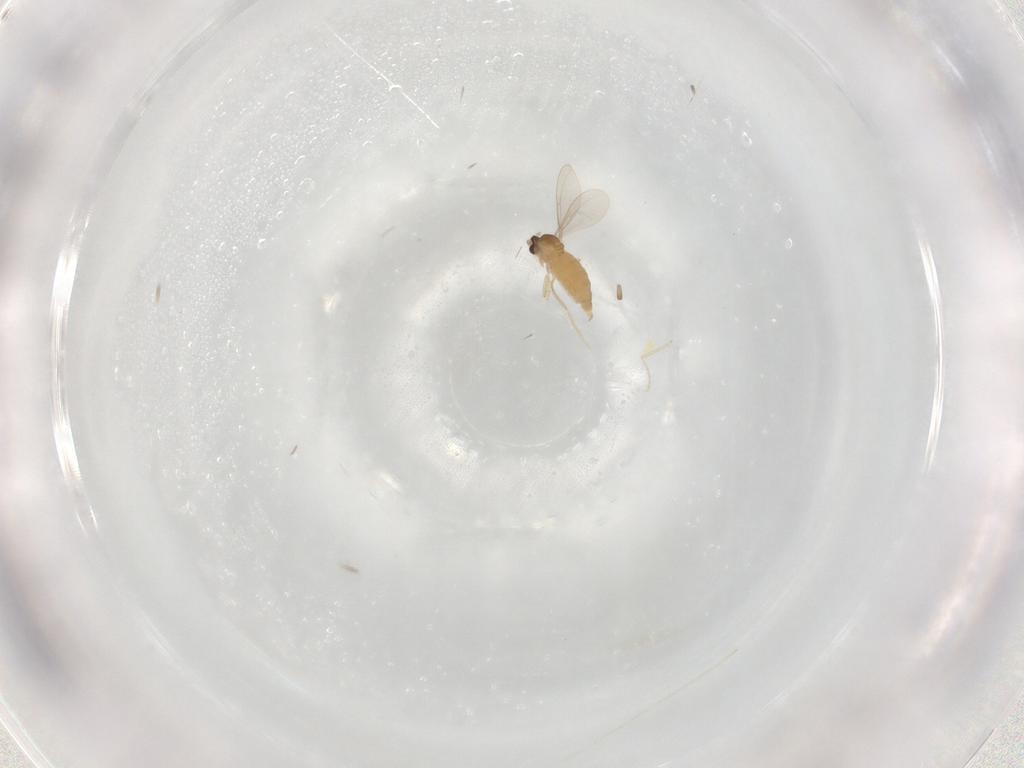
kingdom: Animalia
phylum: Arthropoda
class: Insecta
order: Diptera
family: Cecidomyiidae
